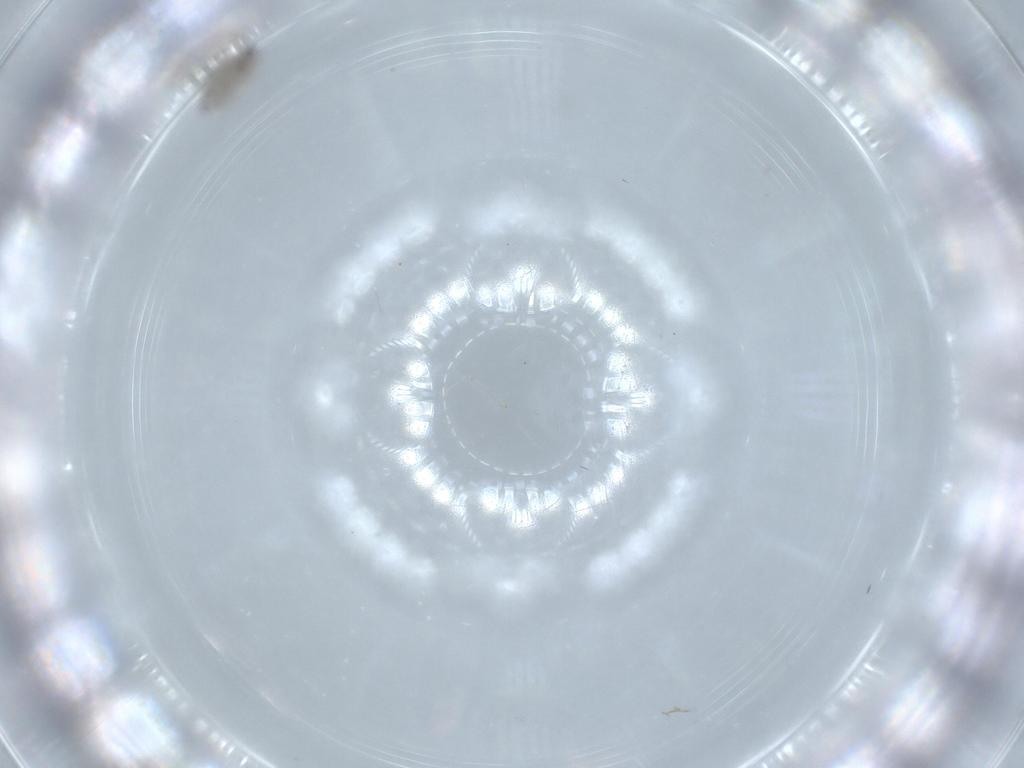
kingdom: Animalia
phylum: Arthropoda
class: Insecta
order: Diptera
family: Cecidomyiidae
